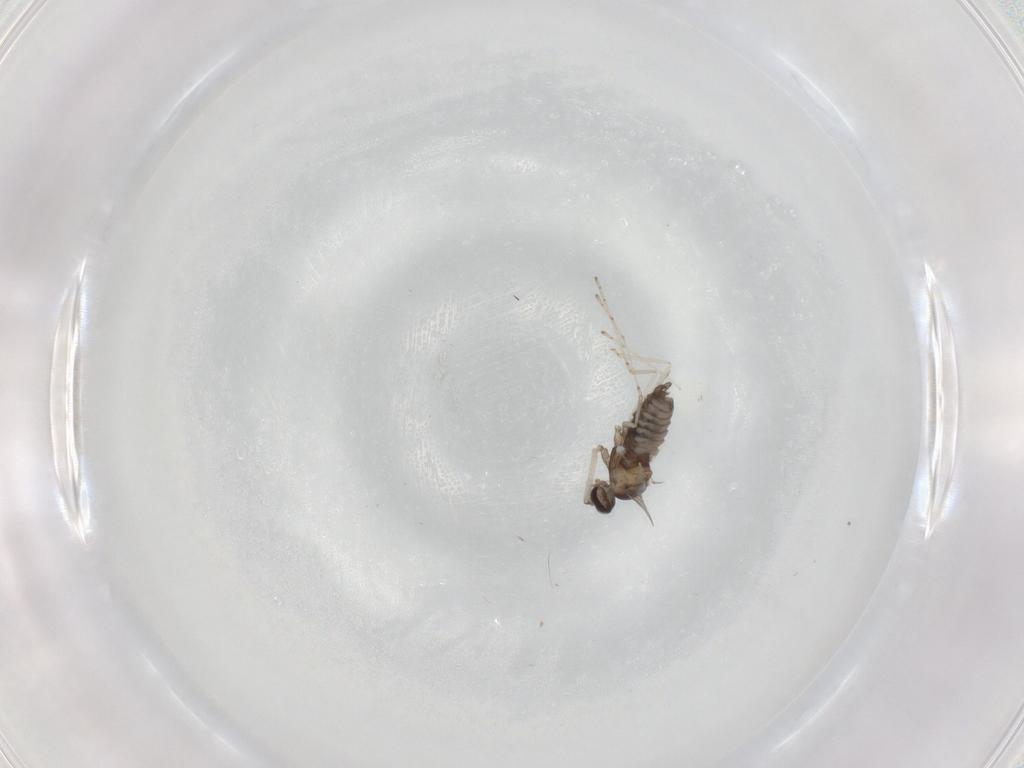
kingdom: Animalia
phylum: Arthropoda
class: Insecta
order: Diptera
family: Cecidomyiidae
